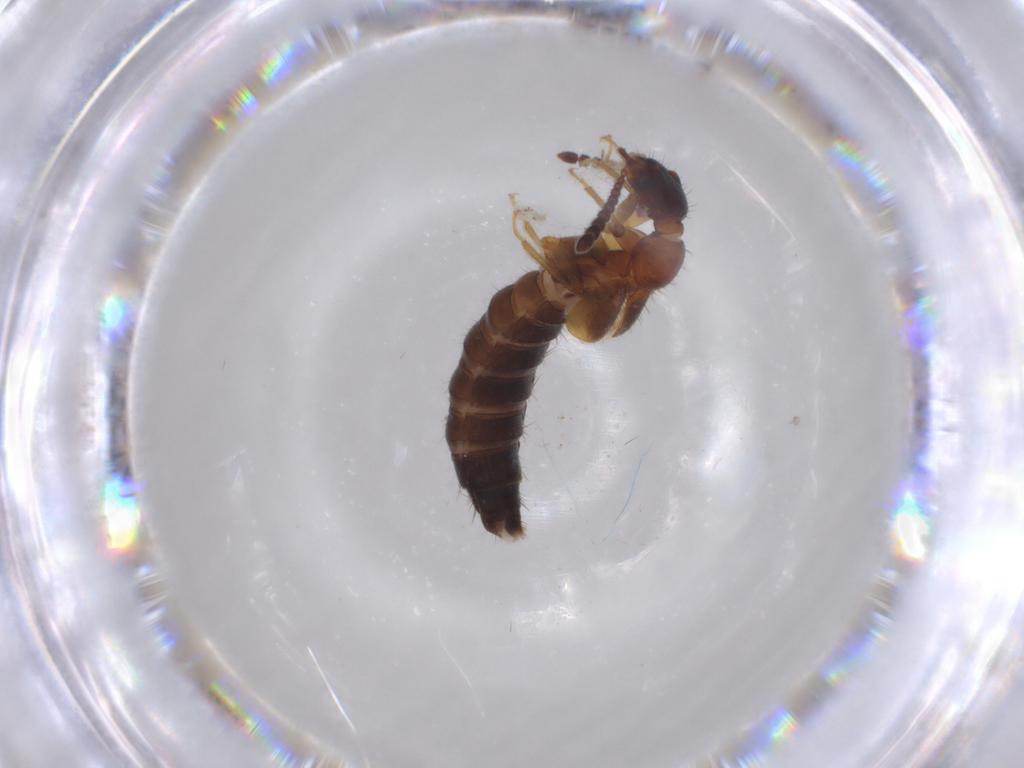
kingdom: Animalia
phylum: Arthropoda
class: Insecta
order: Coleoptera
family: Staphylinidae
